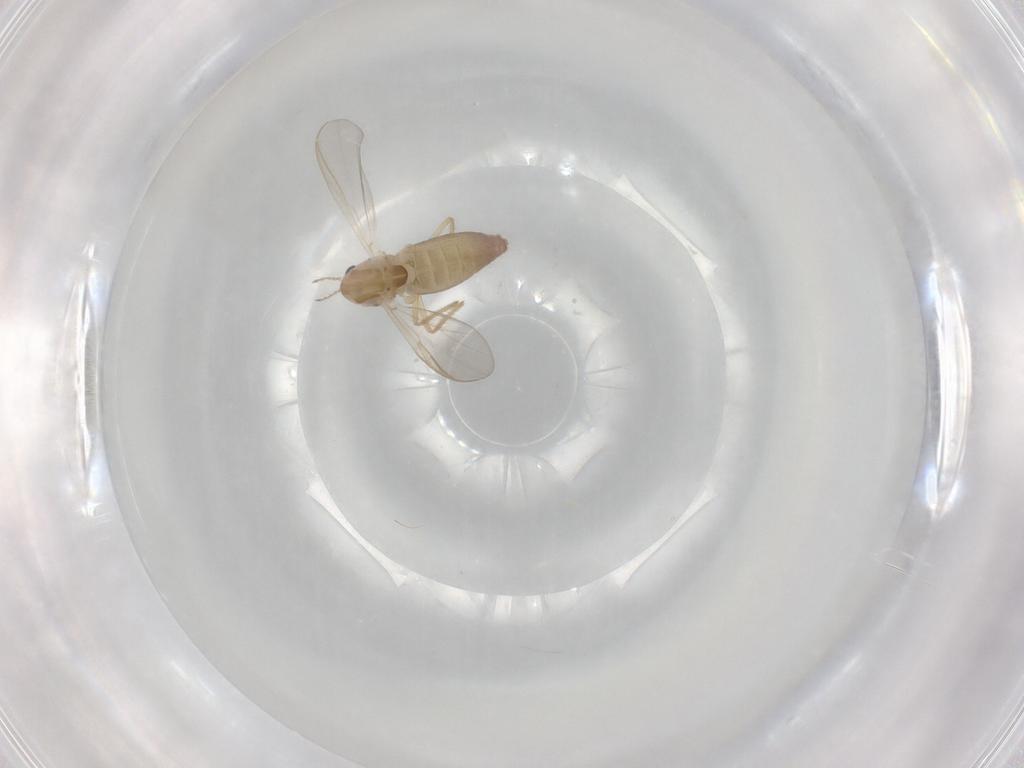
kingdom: Animalia
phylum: Arthropoda
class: Insecta
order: Diptera
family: Chironomidae
